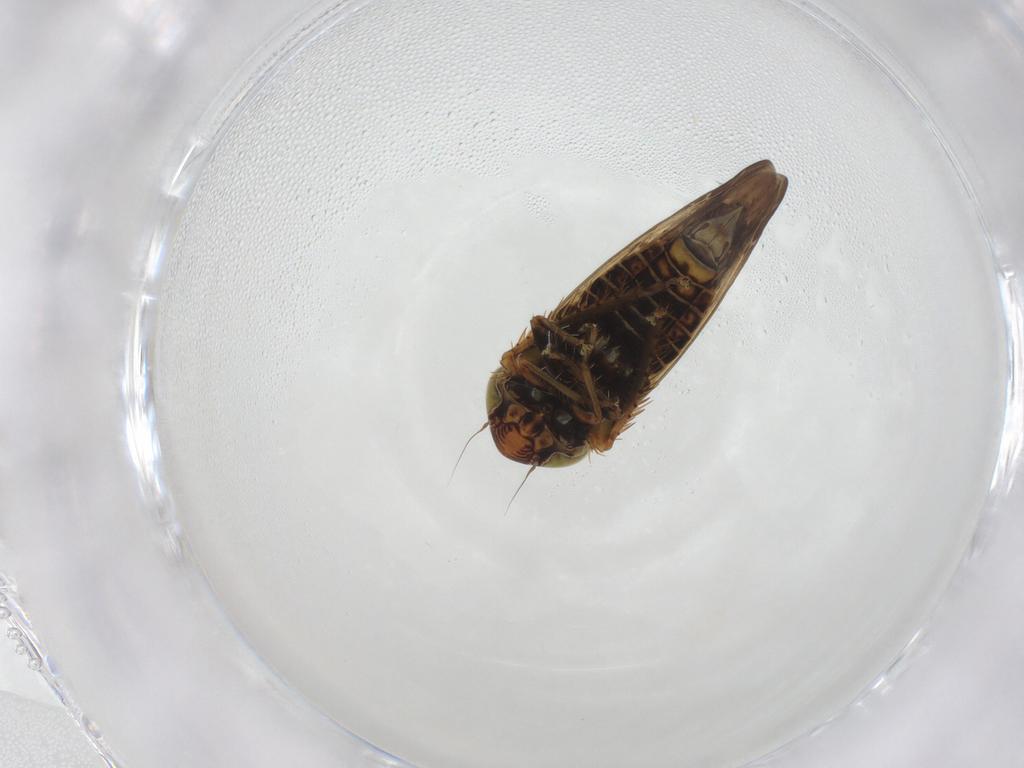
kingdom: Animalia
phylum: Arthropoda
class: Insecta
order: Hemiptera
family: Cicadellidae
